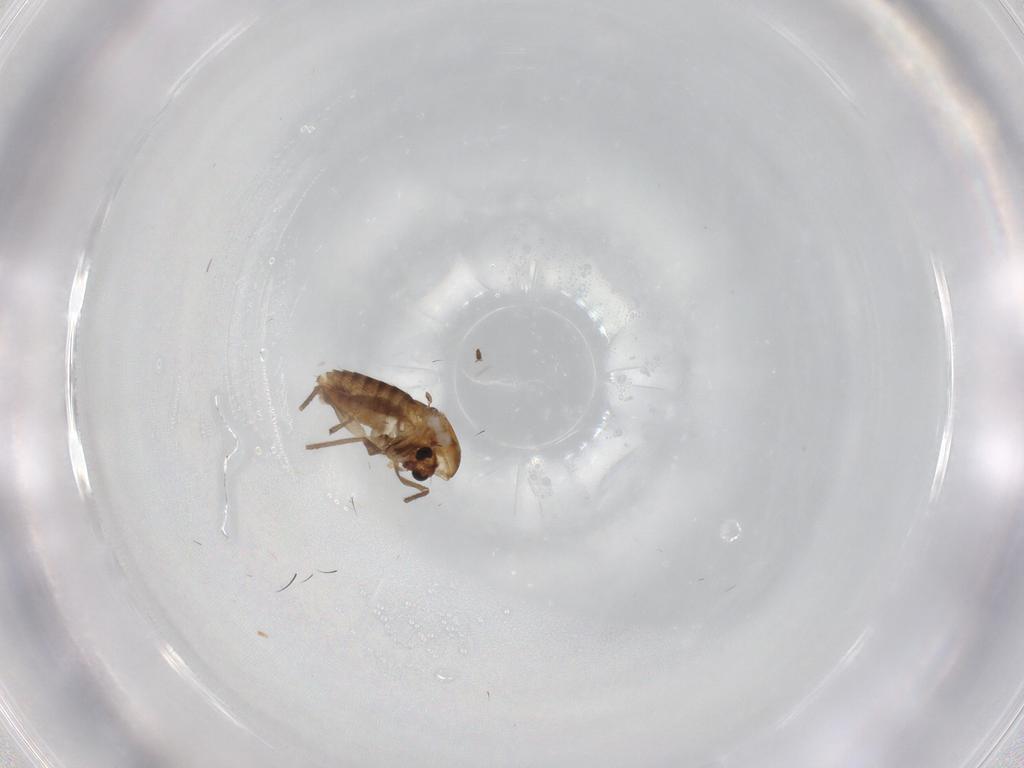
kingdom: Animalia
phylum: Arthropoda
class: Insecta
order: Diptera
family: Chironomidae
